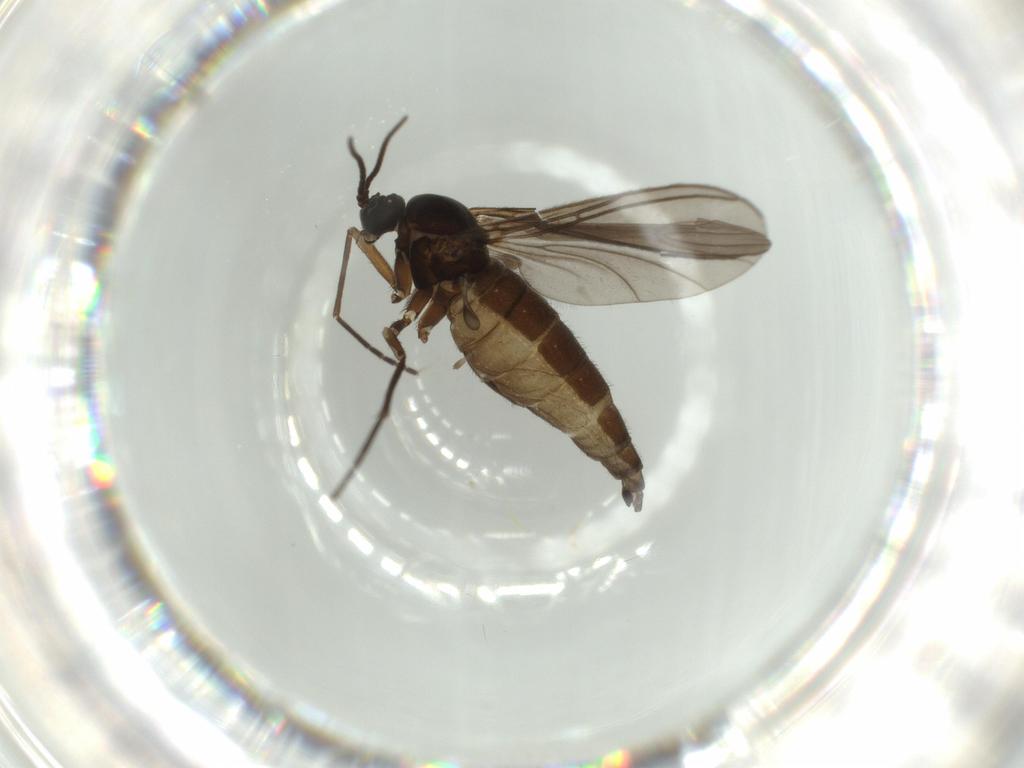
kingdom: Animalia
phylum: Arthropoda
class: Insecta
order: Diptera
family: Sciaridae
